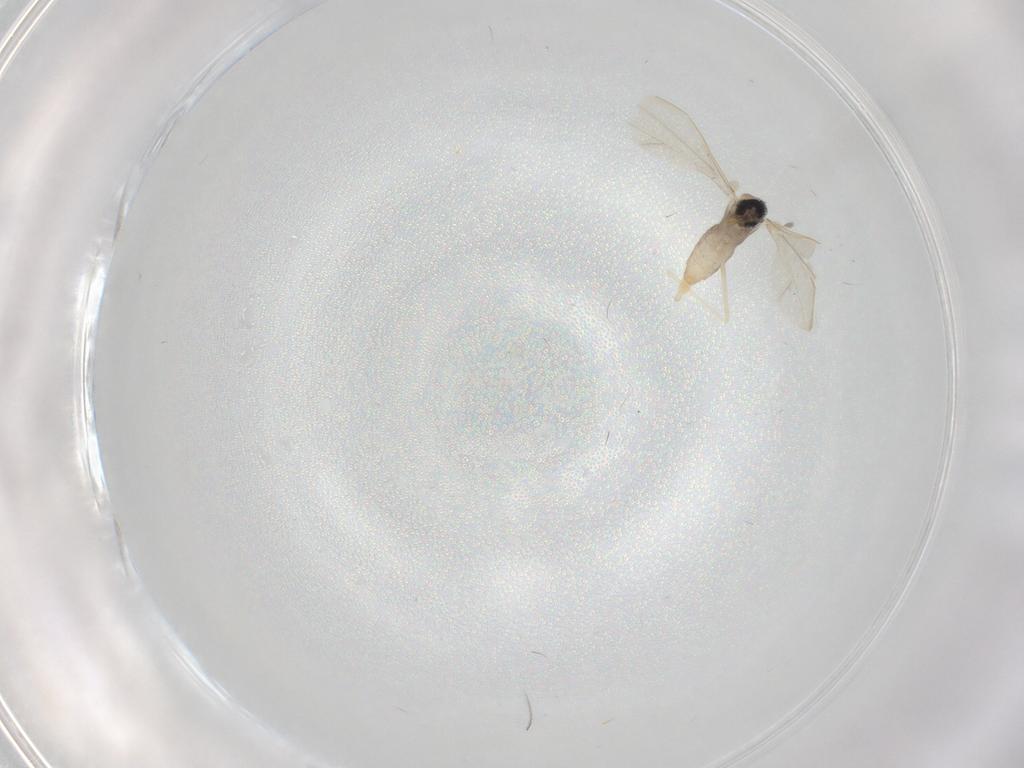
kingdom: Animalia
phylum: Arthropoda
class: Insecta
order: Diptera
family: Cecidomyiidae
